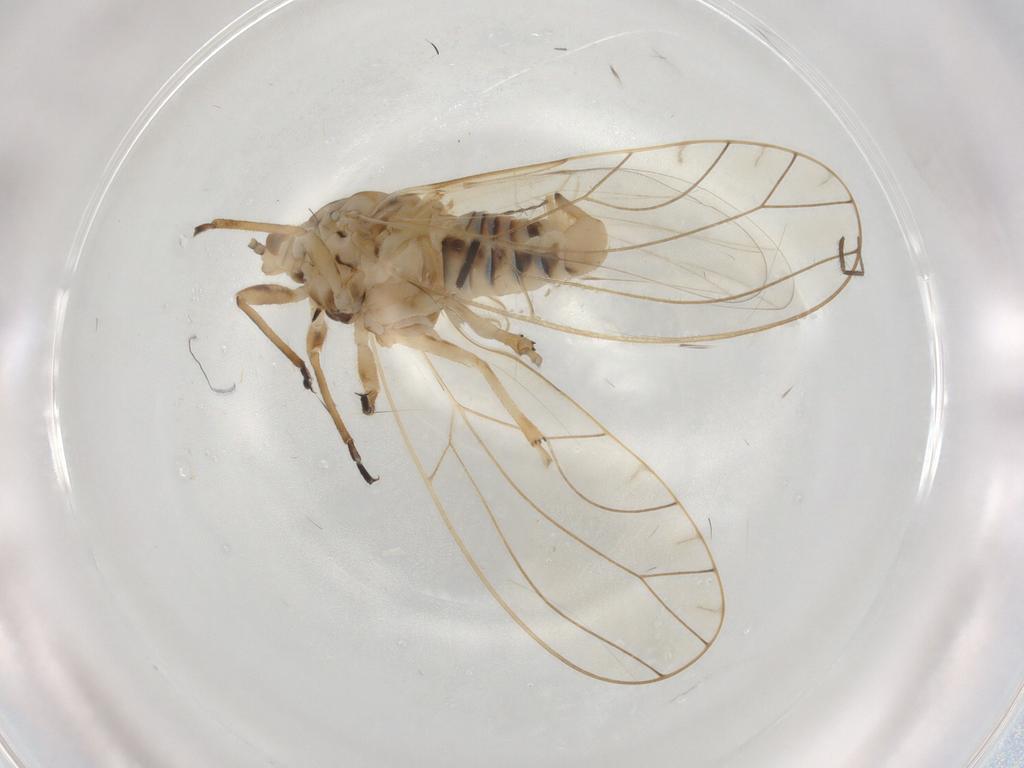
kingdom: Animalia
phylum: Arthropoda
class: Insecta
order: Hemiptera
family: Triozidae
